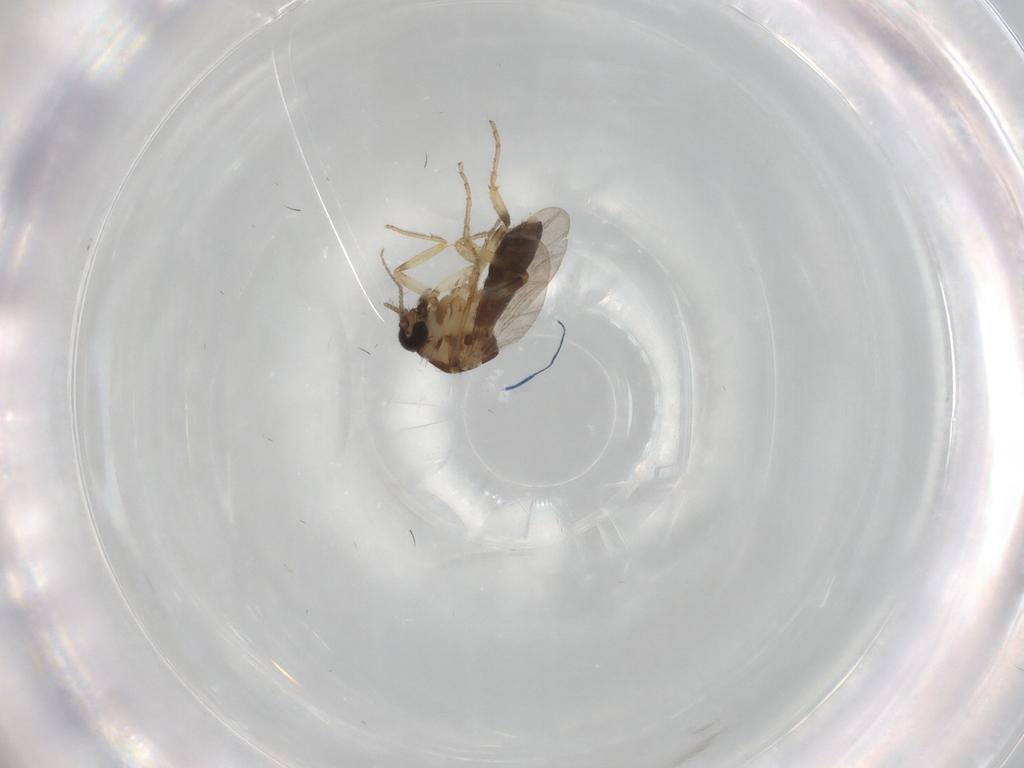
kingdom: Animalia
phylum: Arthropoda
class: Insecta
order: Diptera
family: Ceratopogonidae
